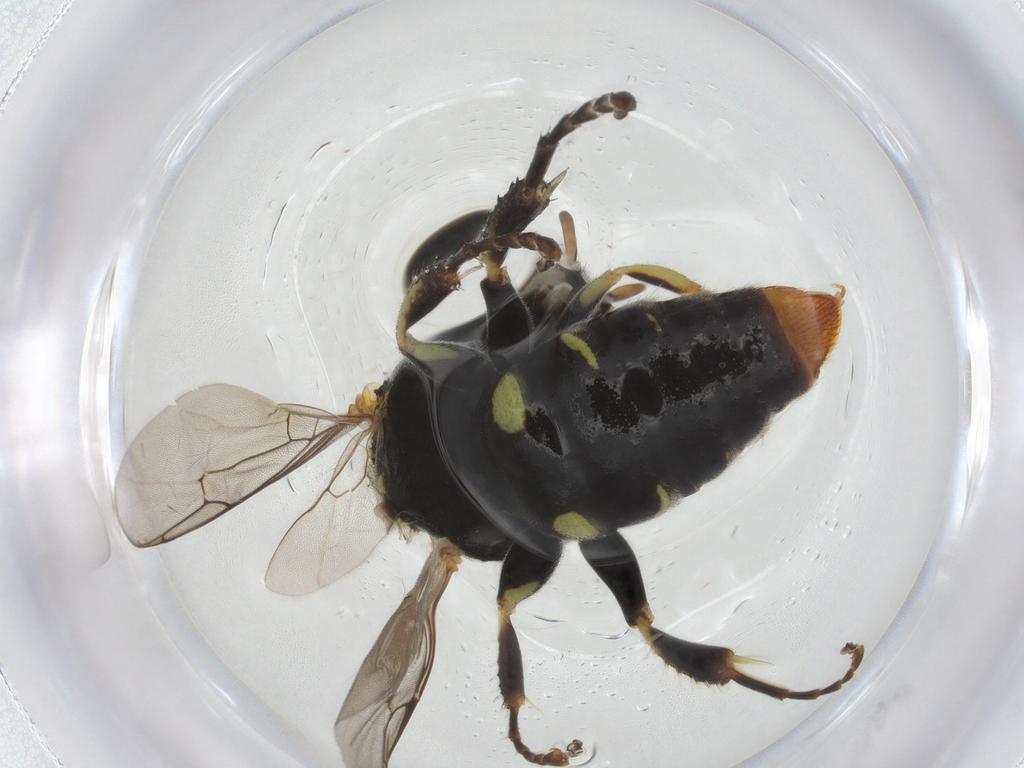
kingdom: Animalia
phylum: Arthropoda
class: Insecta
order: Hymenoptera
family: Crabronidae
